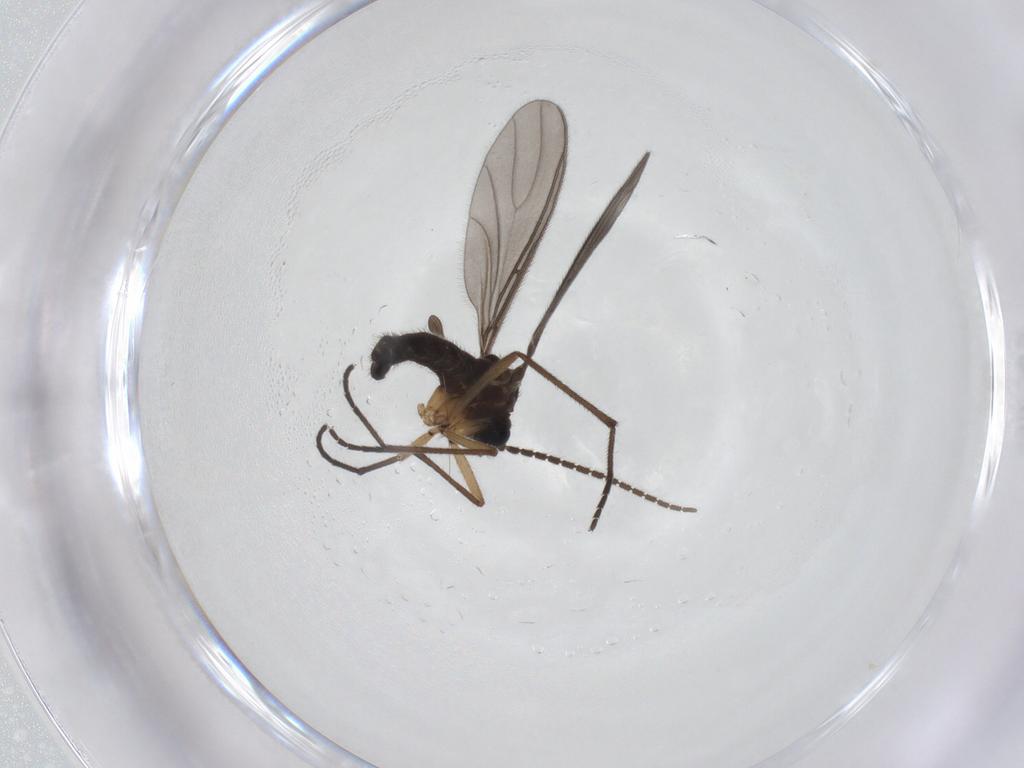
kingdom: Animalia
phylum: Arthropoda
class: Insecta
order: Diptera
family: Sciaridae
